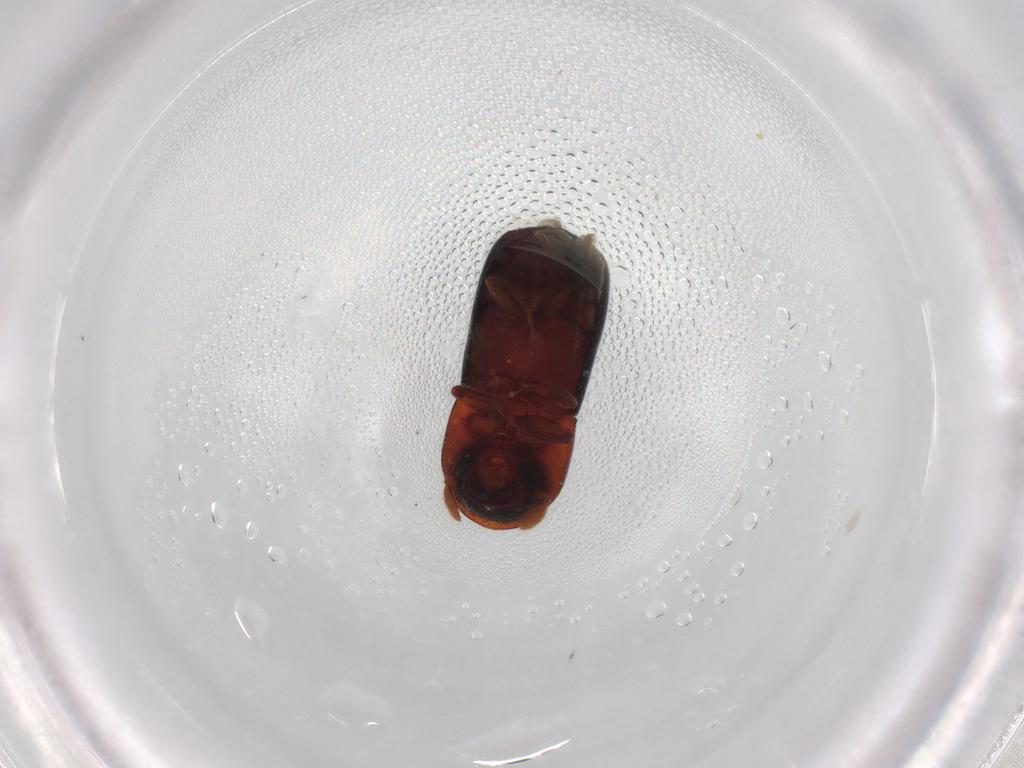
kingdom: Animalia
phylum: Arthropoda
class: Insecta
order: Coleoptera
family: Curculionidae
